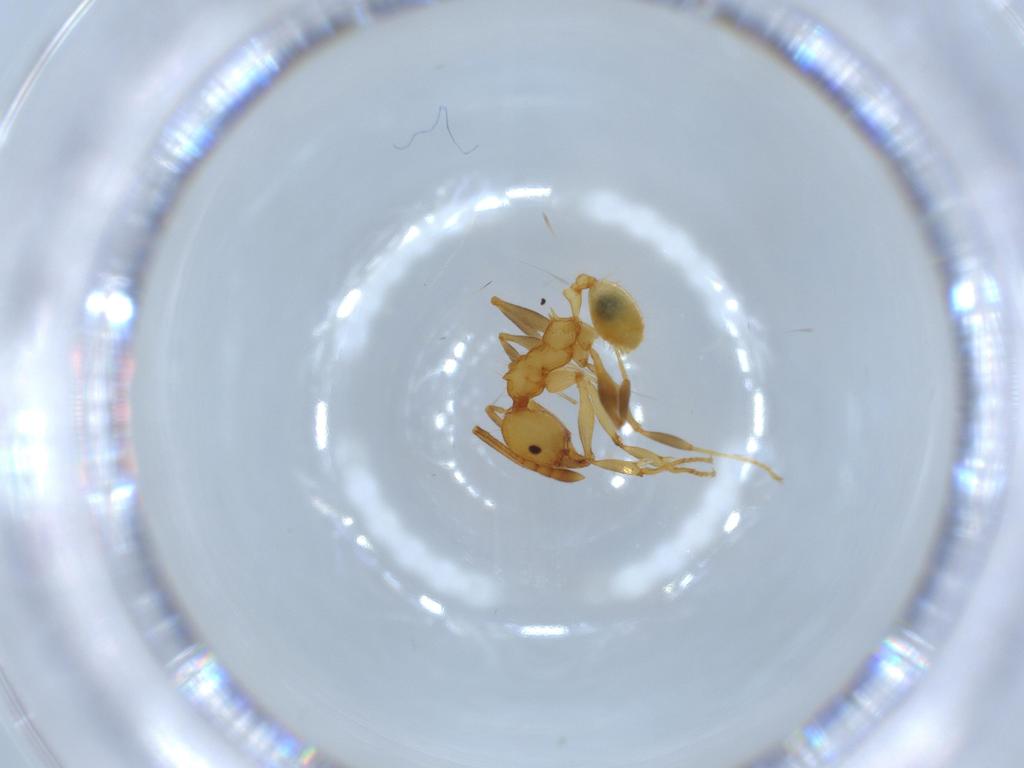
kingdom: Animalia
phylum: Arthropoda
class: Insecta
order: Hymenoptera
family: Formicidae
